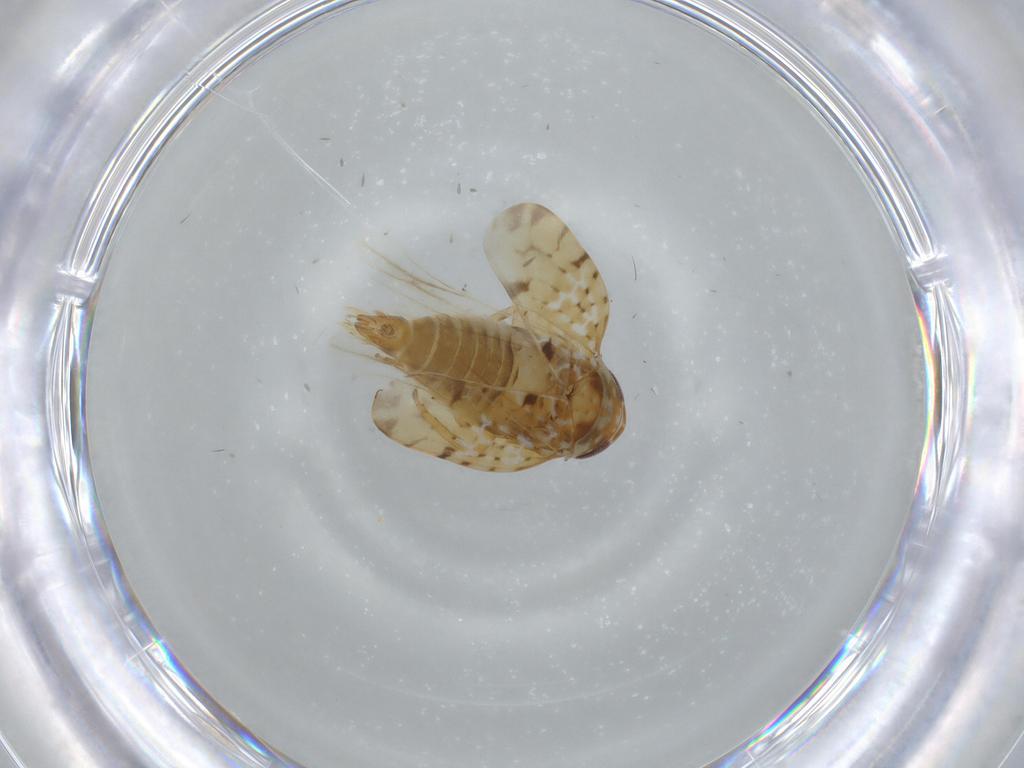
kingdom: Animalia
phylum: Arthropoda
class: Insecta
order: Hemiptera
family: Cicadellidae
